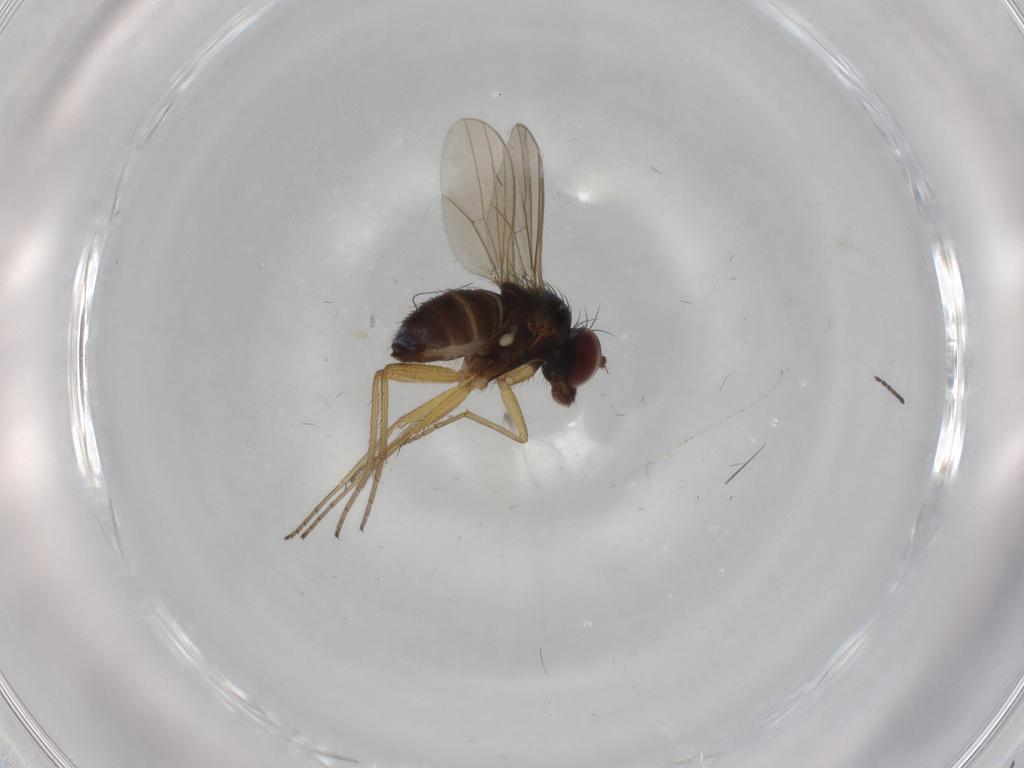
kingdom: Animalia
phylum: Arthropoda
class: Insecta
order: Diptera
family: Dolichopodidae
